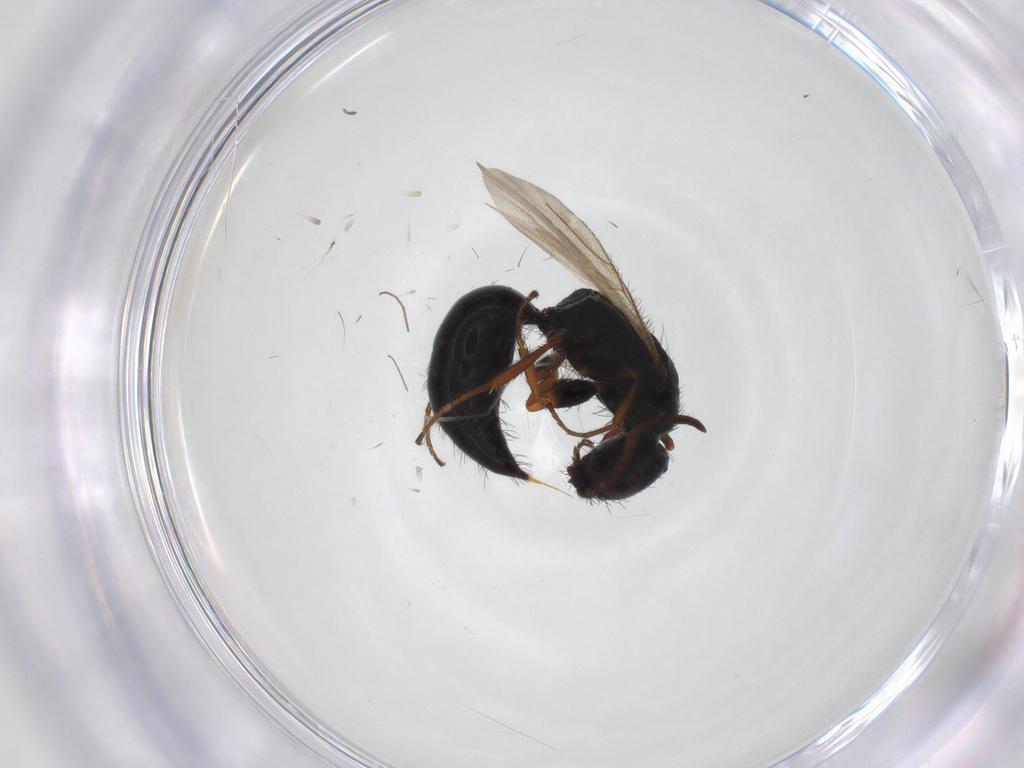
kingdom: Animalia
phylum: Arthropoda
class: Insecta
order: Hymenoptera
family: Bethylidae
